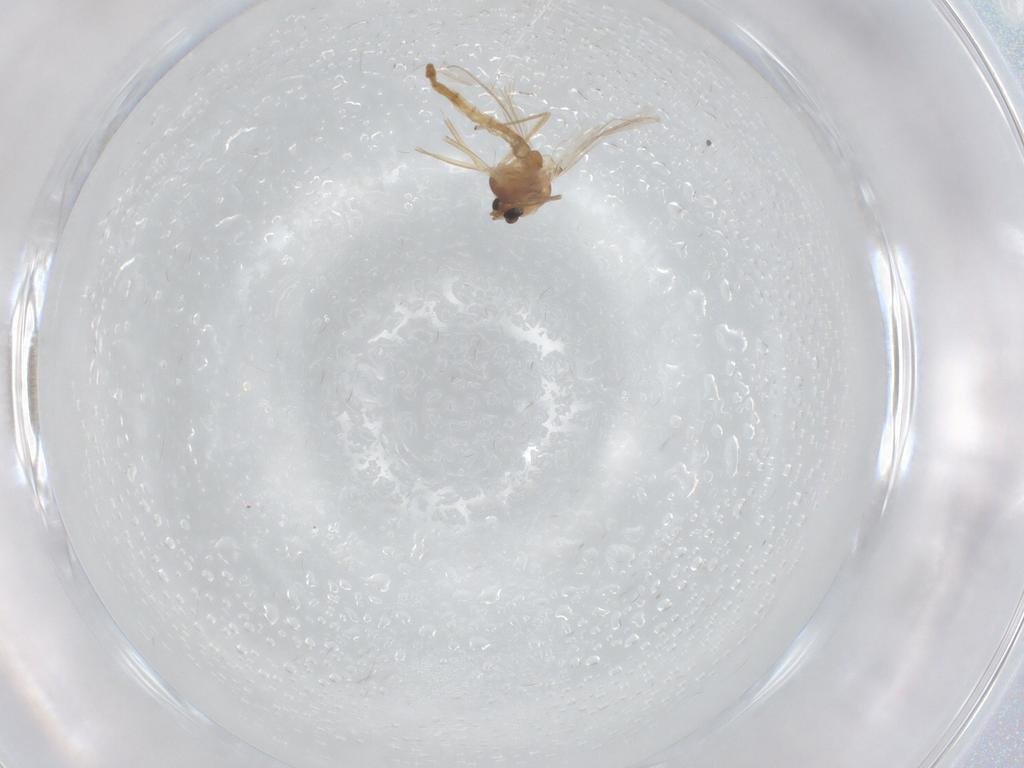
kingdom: Animalia
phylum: Arthropoda
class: Insecta
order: Diptera
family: Chironomidae
